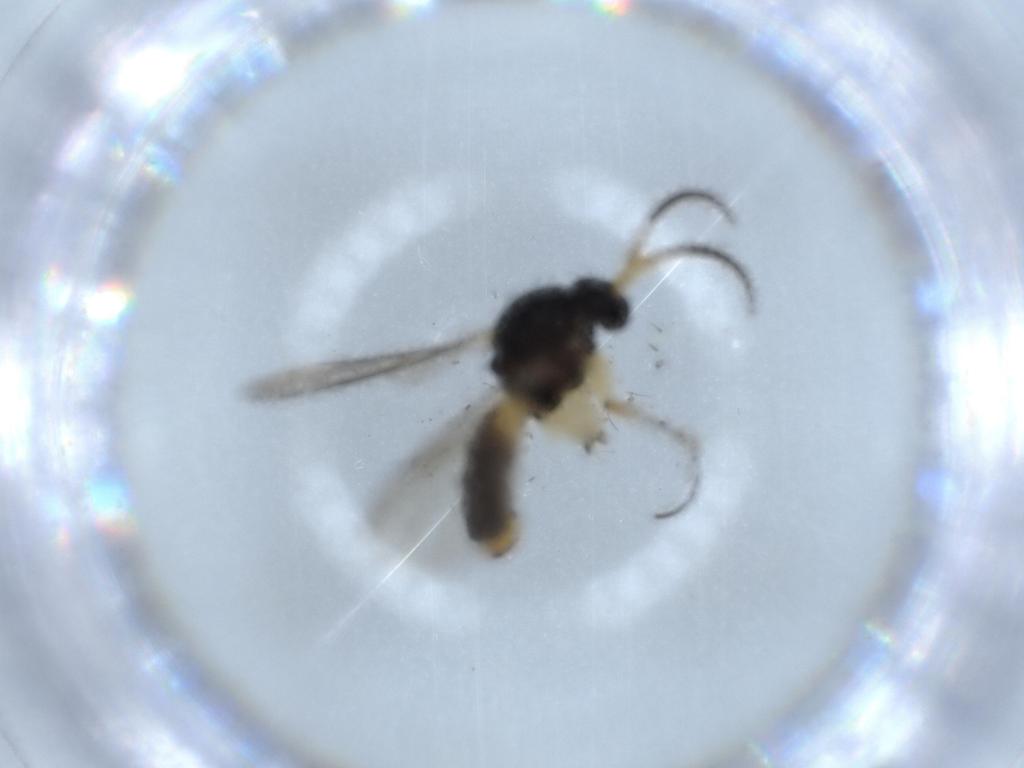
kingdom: Animalia
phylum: Arthropoda
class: Insecta
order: Diptera
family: Mycetophilidae
